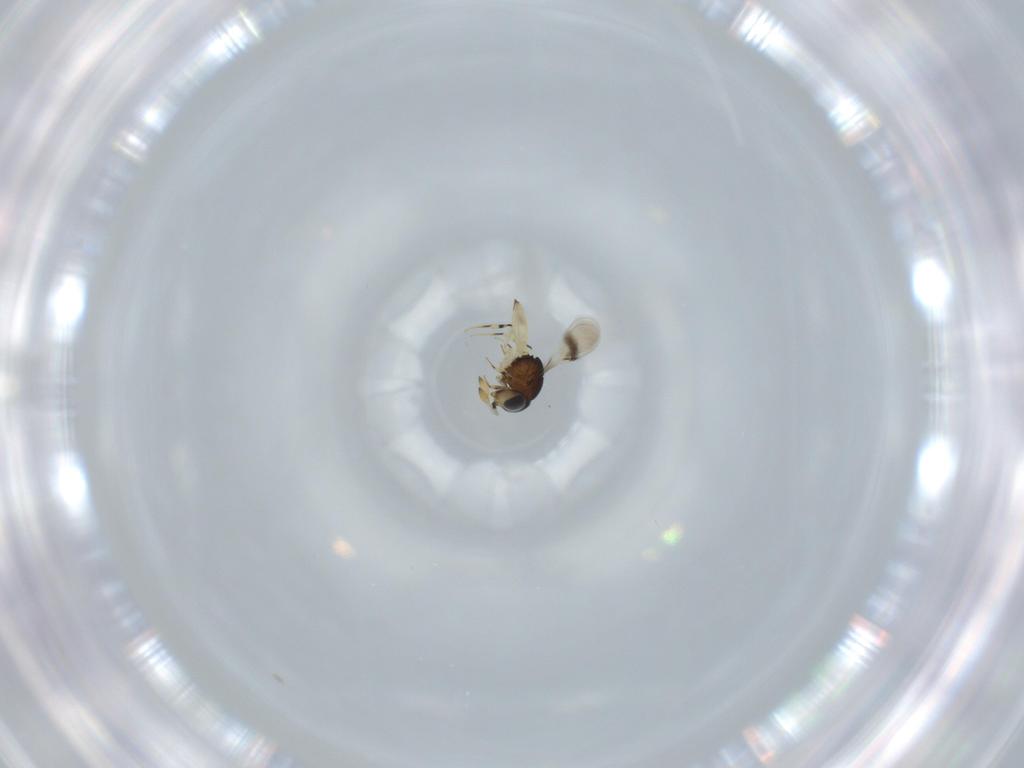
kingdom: Animalia
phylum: Arthropoda
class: Insecta
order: Hymenoptera
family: Scelionidae
